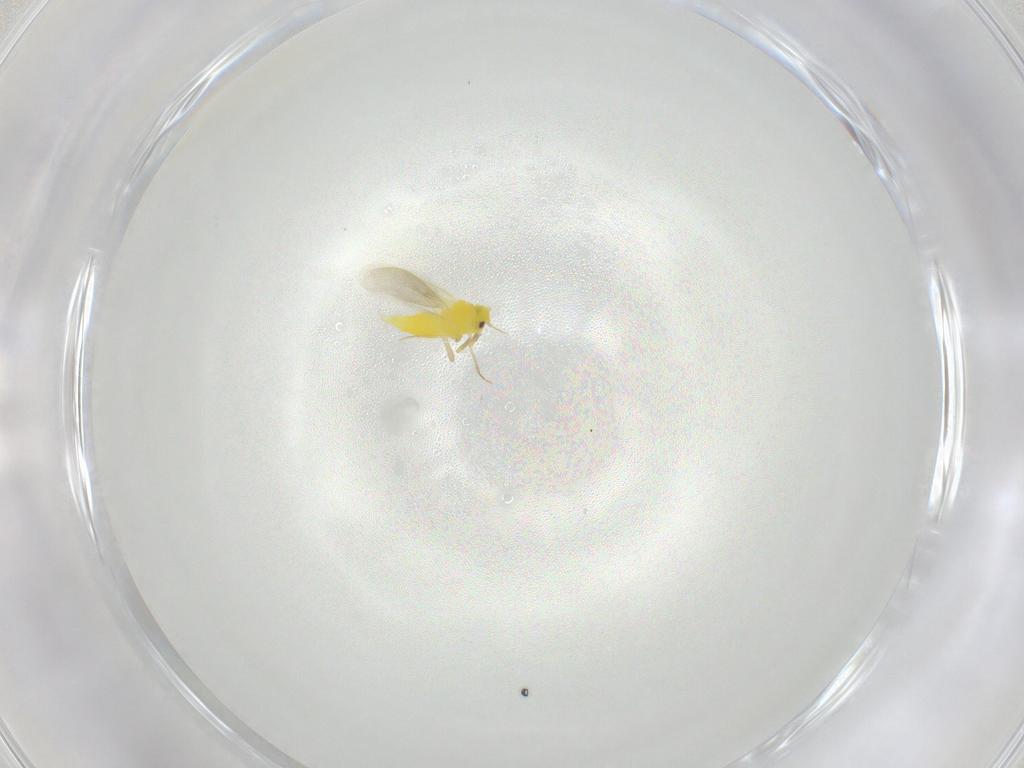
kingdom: Animalia
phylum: Arthropoda
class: Insecta
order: Hemiptera
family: Aleyrodidae
